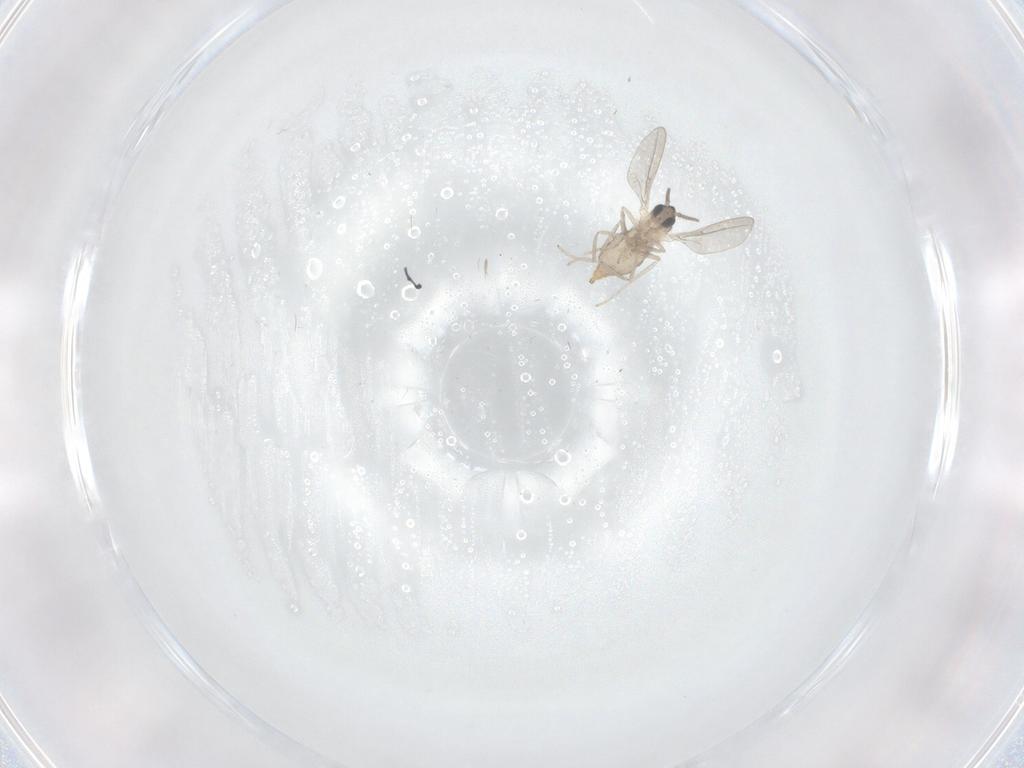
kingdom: Animalia
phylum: Arthropoda
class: Insecta
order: Diptera
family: Cecidomyiidae
